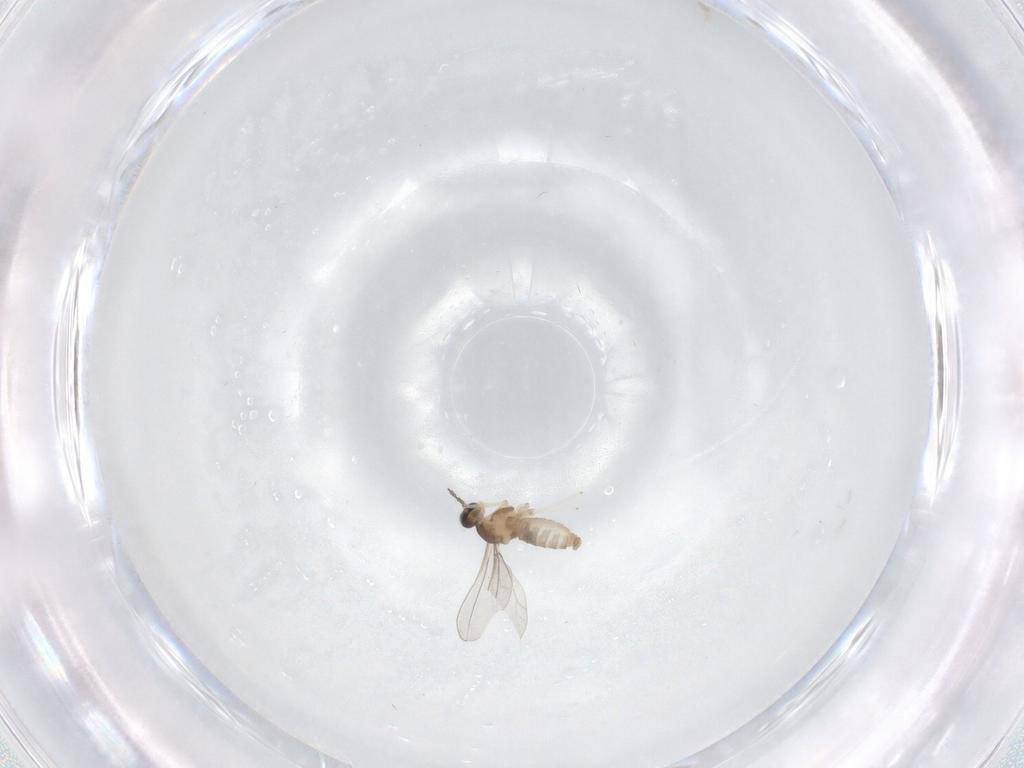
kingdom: Animalia
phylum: Arthropoda
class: Insecta
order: Diptera
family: Cecidomyiidae
